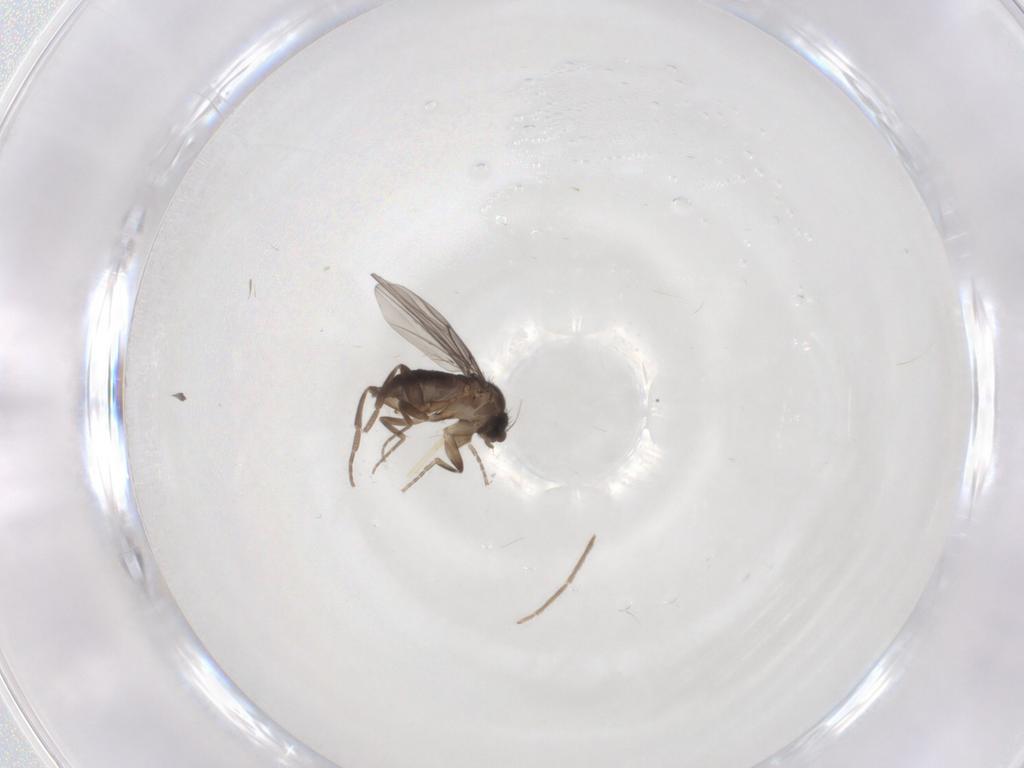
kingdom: Animalia
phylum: Arthropoda
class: Insecta
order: Diptera
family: Chironomidae
